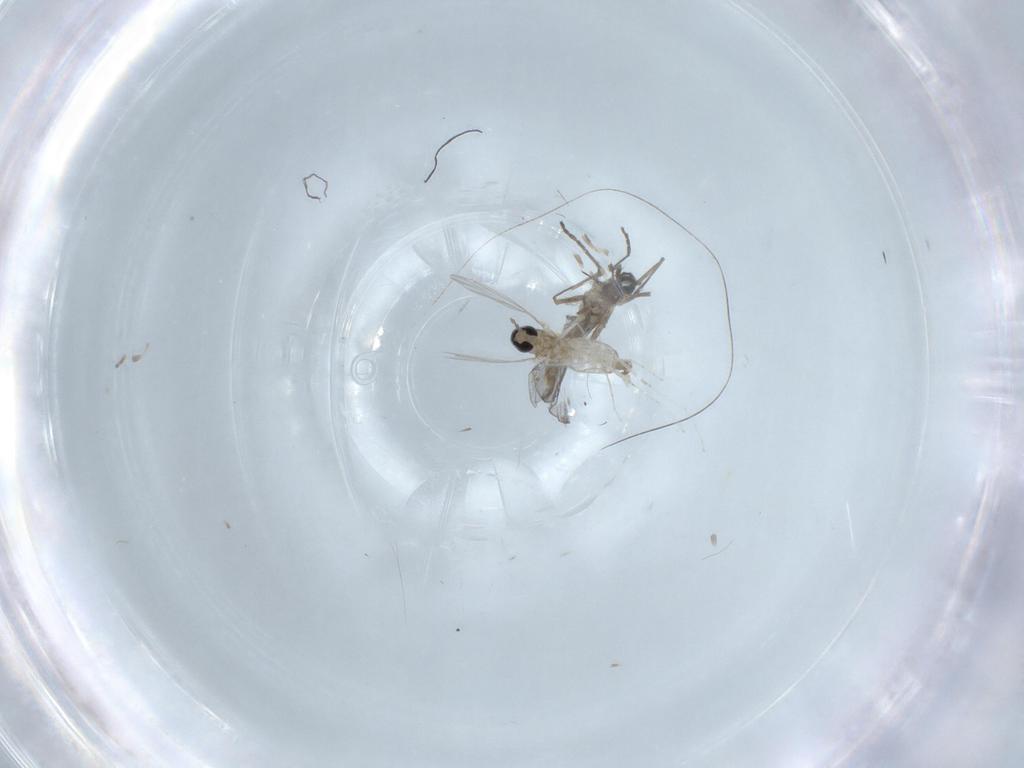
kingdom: Animalia
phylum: Arthropoda
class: Insecta
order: Diptera
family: Cecidomyiidae
